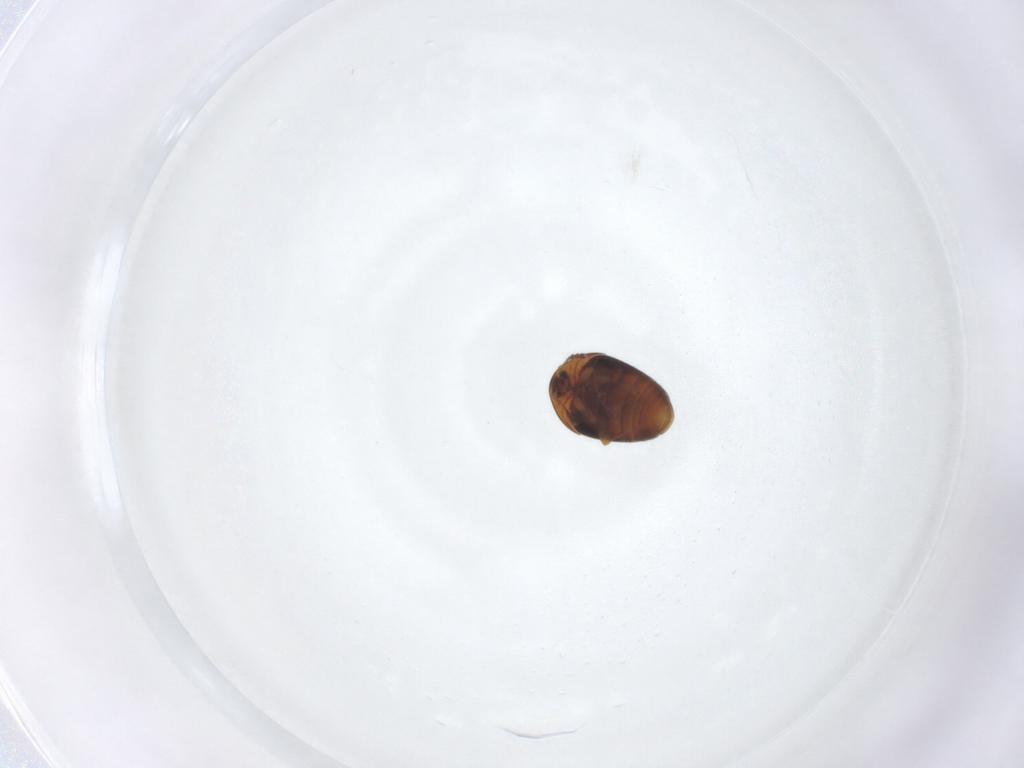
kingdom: Animalia
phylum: Arthropoda
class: Insecta
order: Coleoptera
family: Corylophidae
